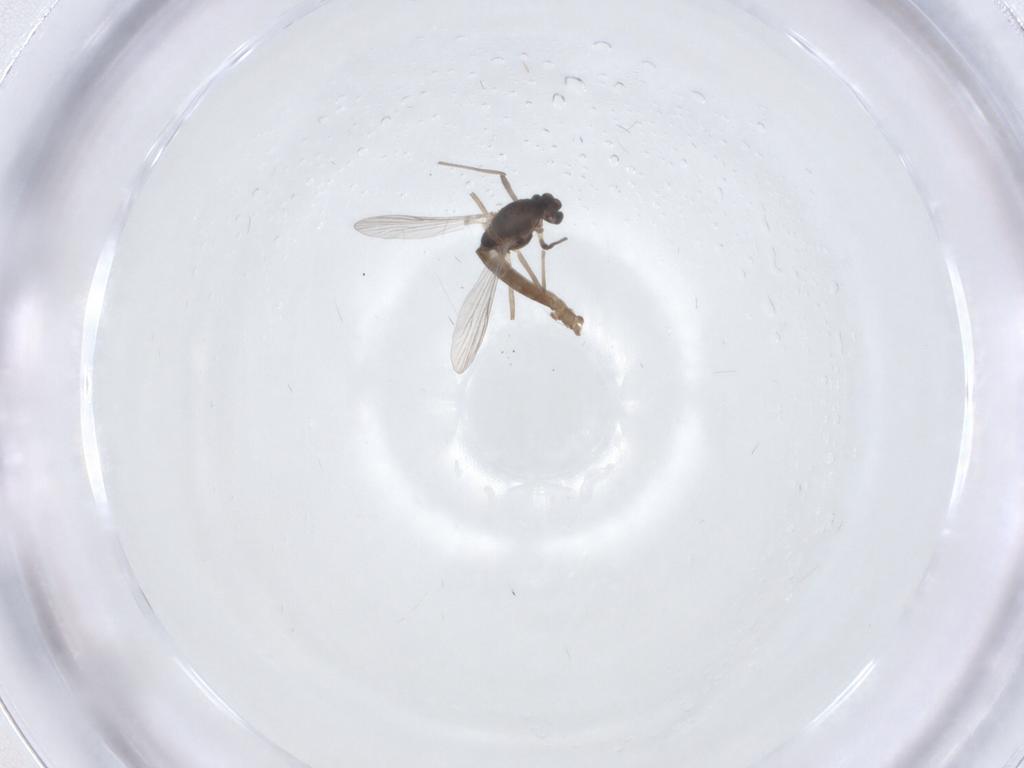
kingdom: Animalia
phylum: Arthropoda
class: Insecta
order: Diptera
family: Chironomidae
